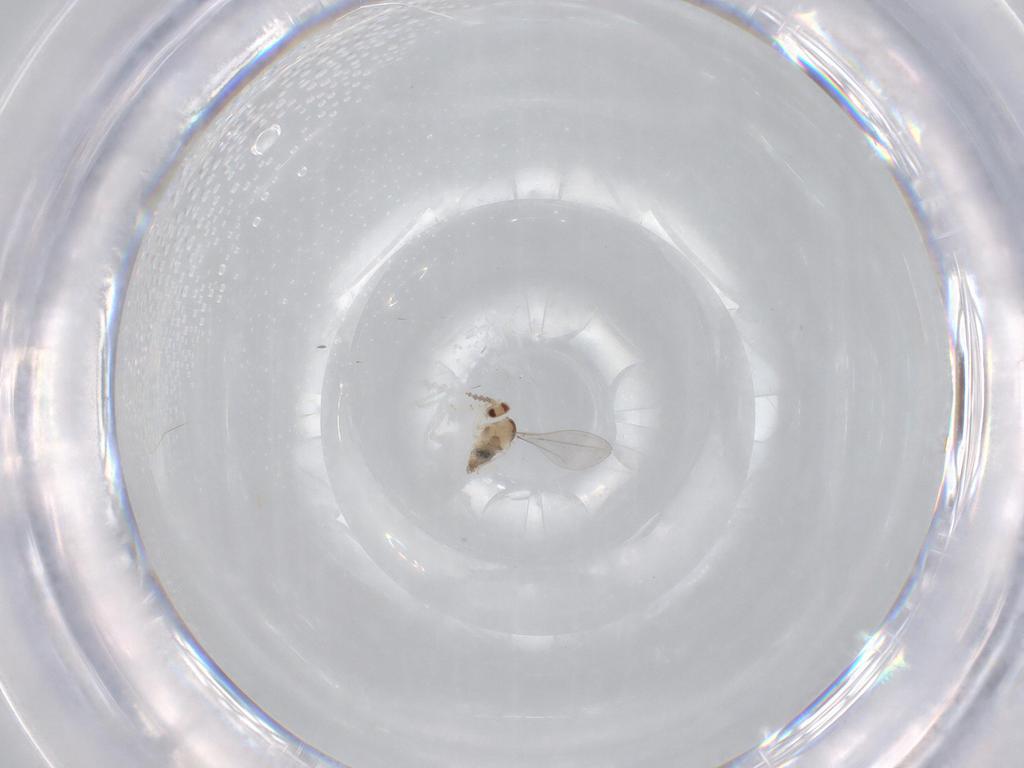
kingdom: Animalia
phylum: Arthropoda
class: Insecta
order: Diptera
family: Cecidomyiidae
